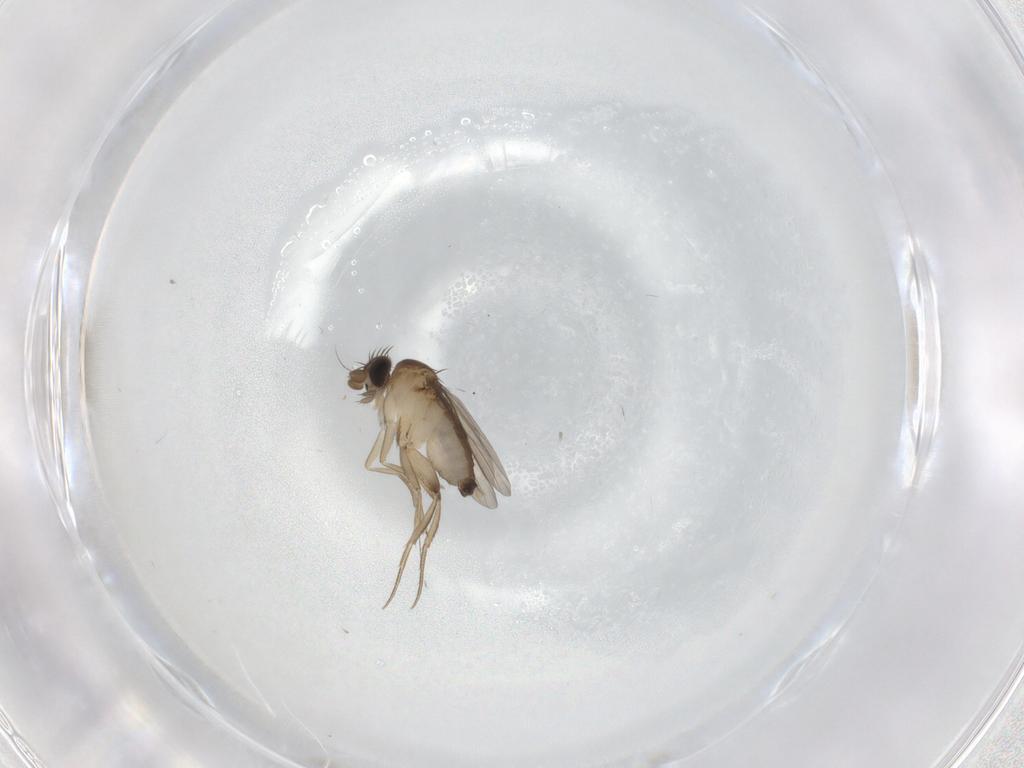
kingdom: Animalia
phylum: Arthropoda
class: Insecta
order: Diptera
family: Phoridae
